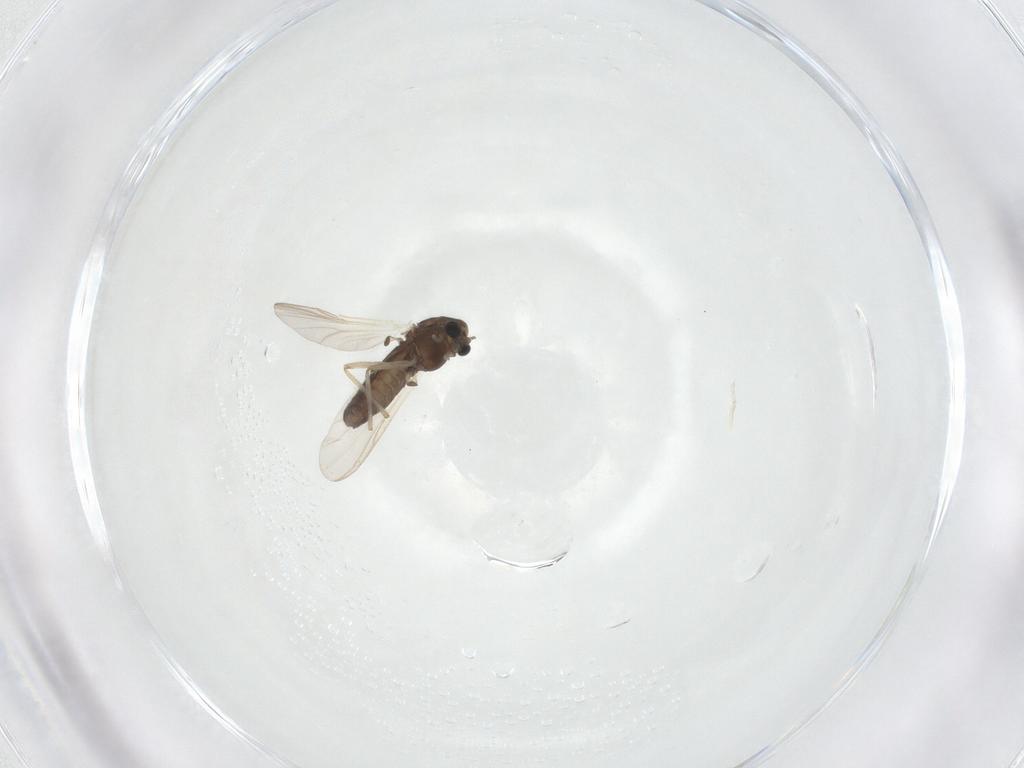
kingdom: Animalia
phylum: Arthropoda
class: Insecta
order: Diptera
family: Chironomidae
